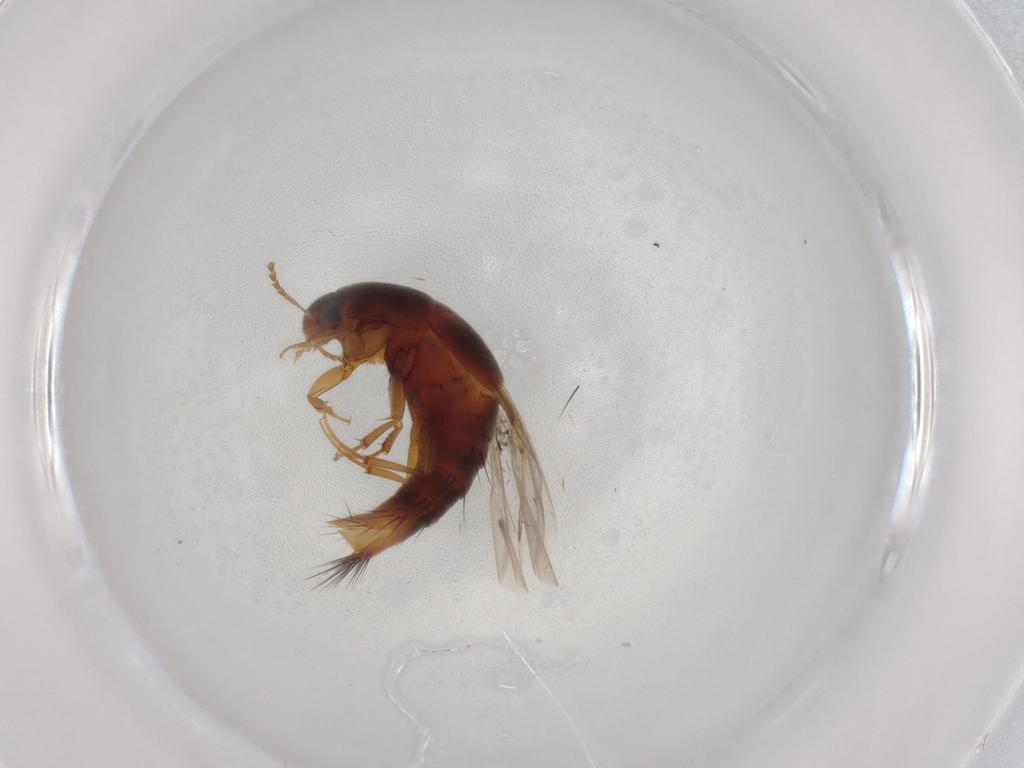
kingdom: Animalia
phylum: Arthropoda
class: Insecta
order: Coleoptera
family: Staphylinidae
